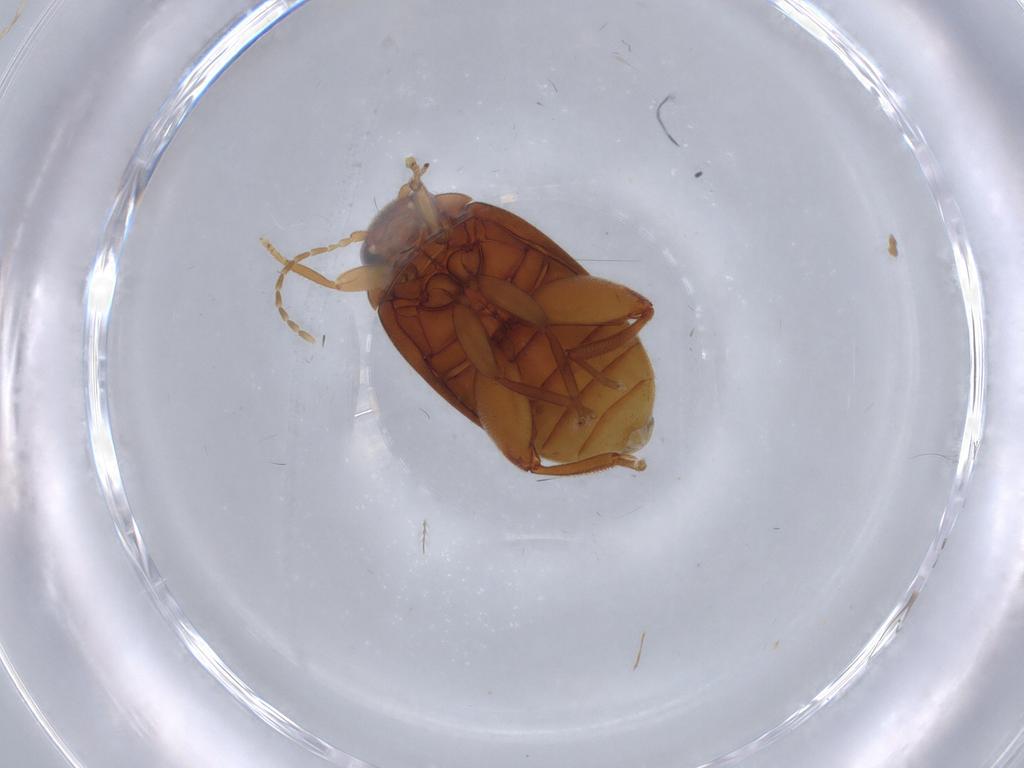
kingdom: Animalia
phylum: Arthropoda
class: Insecta
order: Coleoptera
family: Scirtidae
